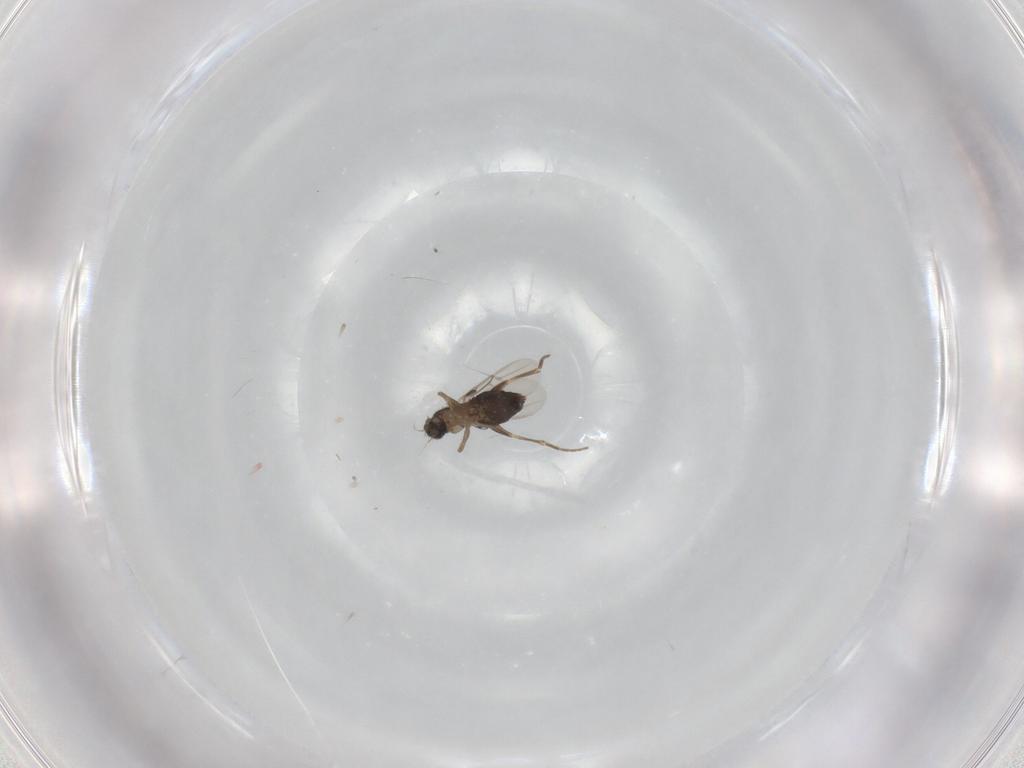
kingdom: Animalia
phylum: Arthropoda
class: Insecta
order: Diptera
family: Phoridae
